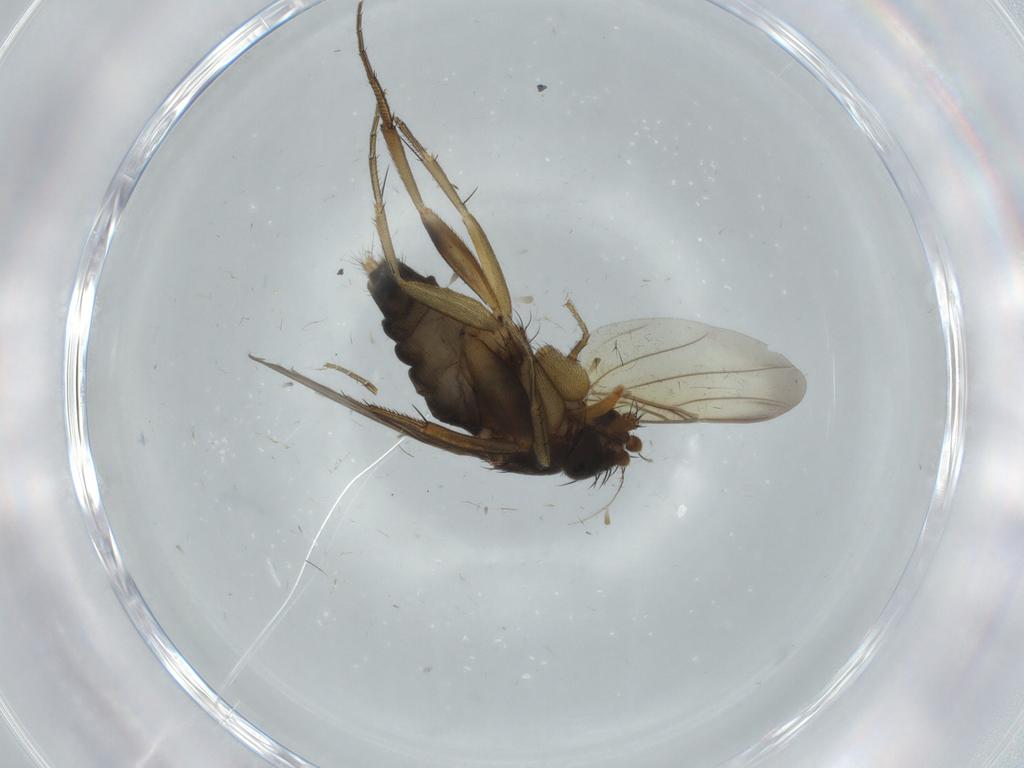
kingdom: Animalia
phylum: Arthropoda
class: Insecta
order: Diptera
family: Phoridae
